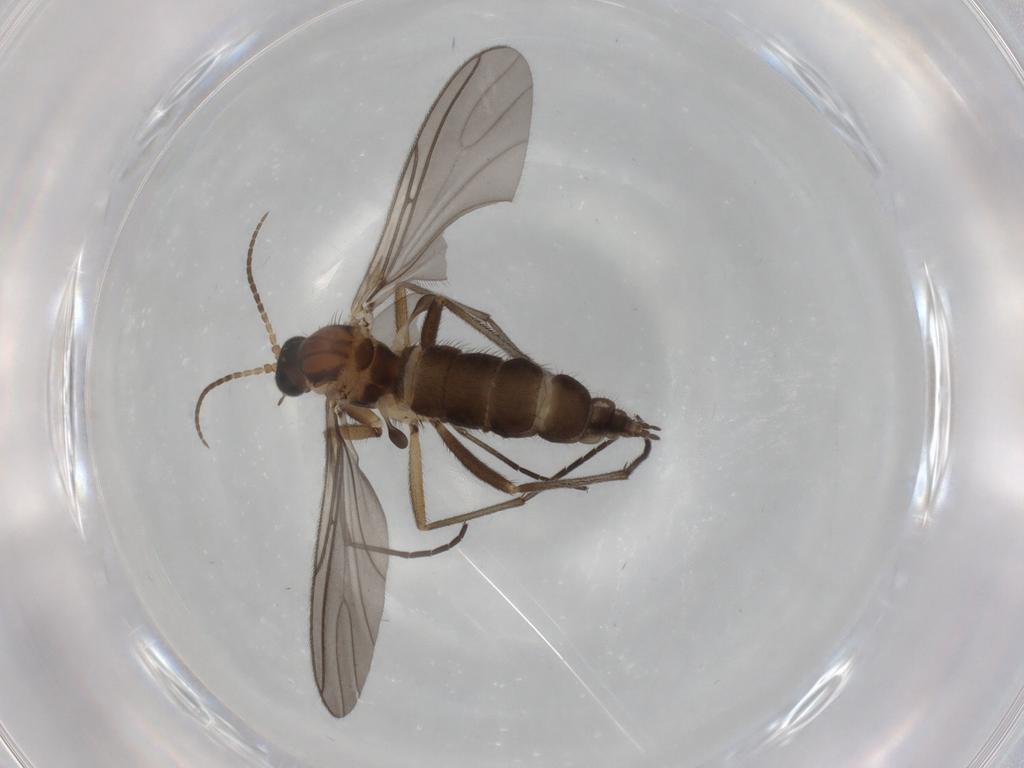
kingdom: Animalia
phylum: Arthropoda
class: Insecta
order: Diptera
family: Sciaridae
